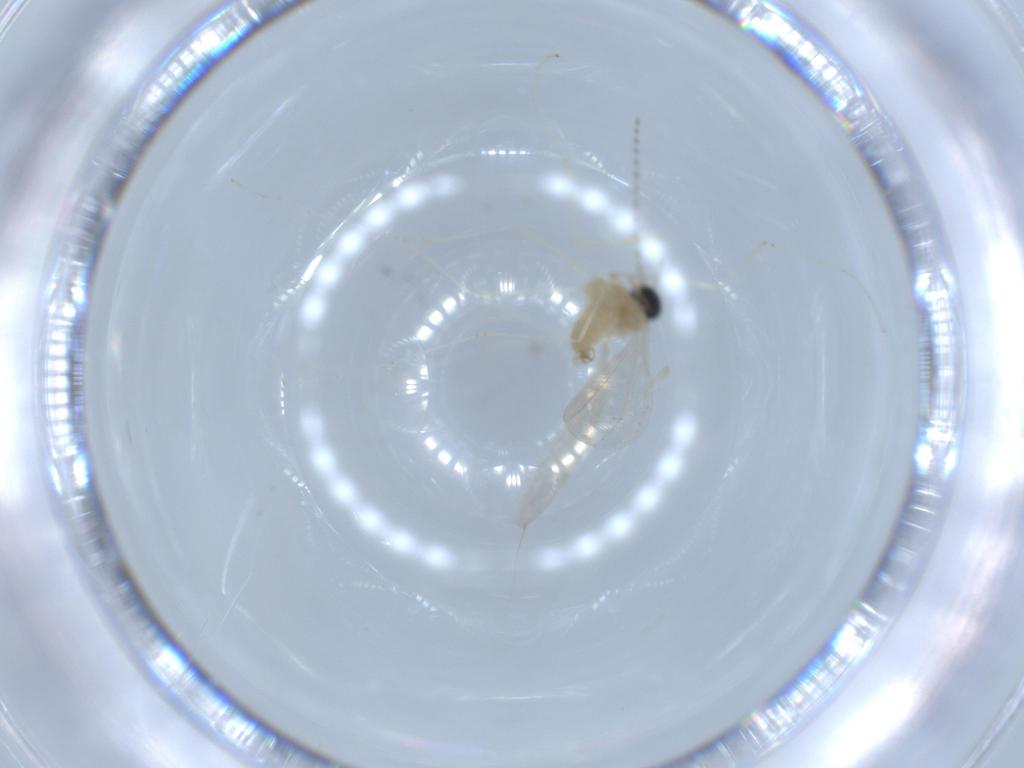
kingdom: Animalia
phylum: Arthropoda
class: Insecta
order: Diptera
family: Cecidomyiidae
